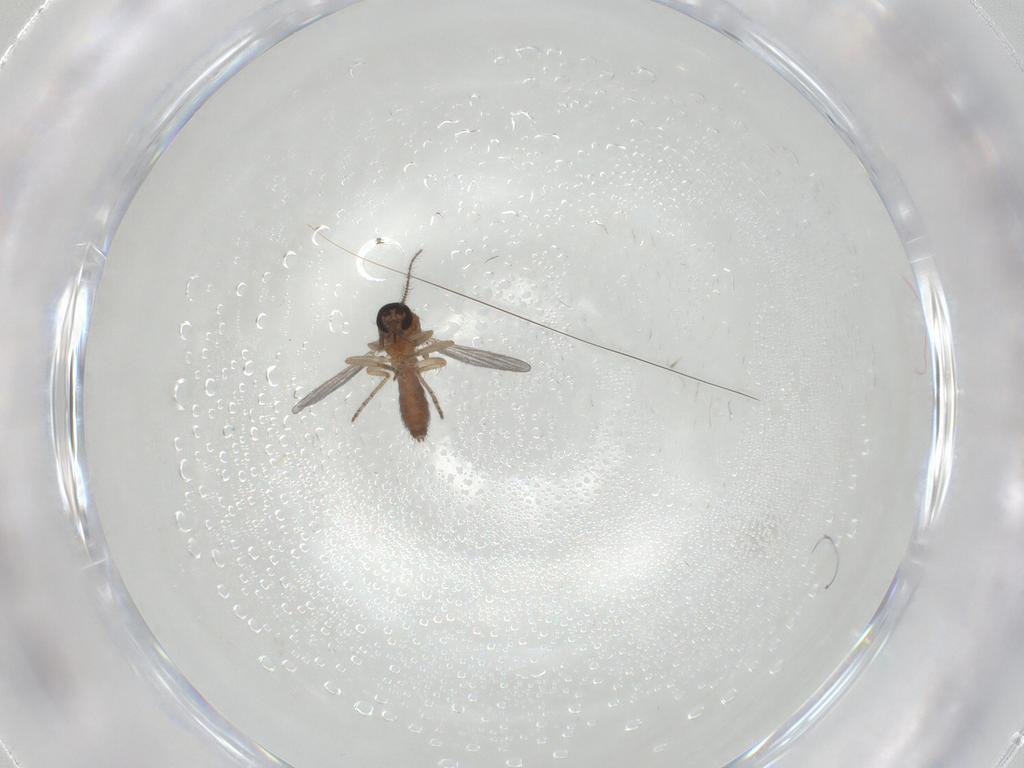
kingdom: Animalia
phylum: Arthropoda
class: Insecta
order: Diptera
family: Ceratopogonidae
